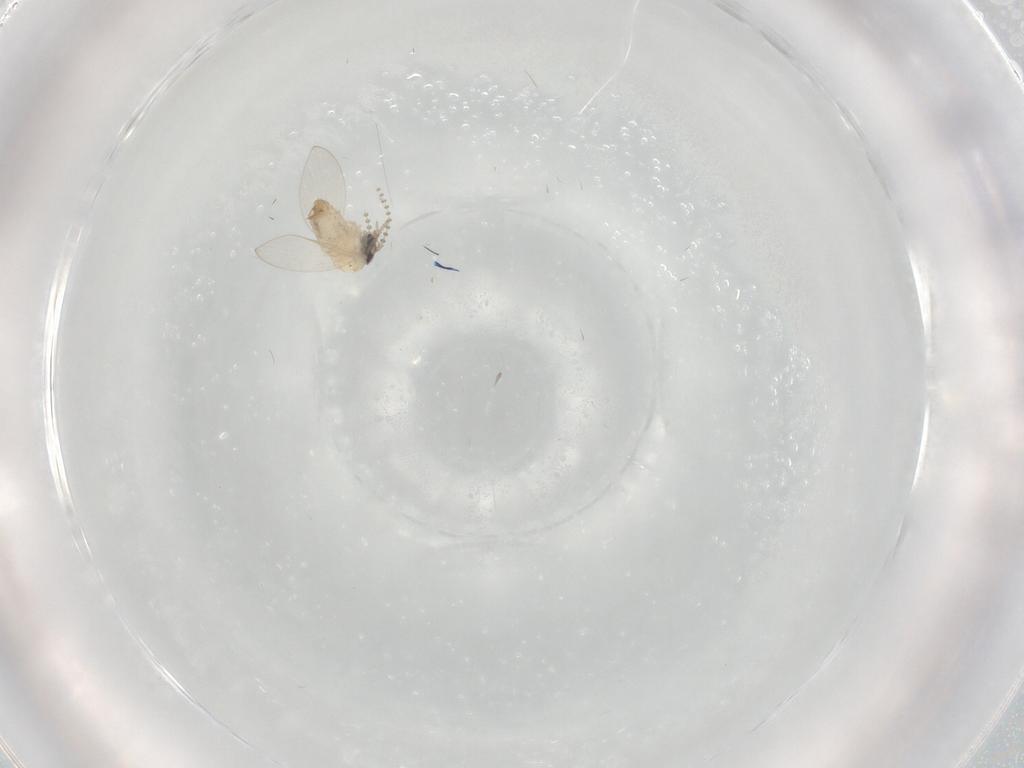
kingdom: Animalia
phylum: Arthropoda
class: Insecta
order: Diptera
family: Psychodidae
